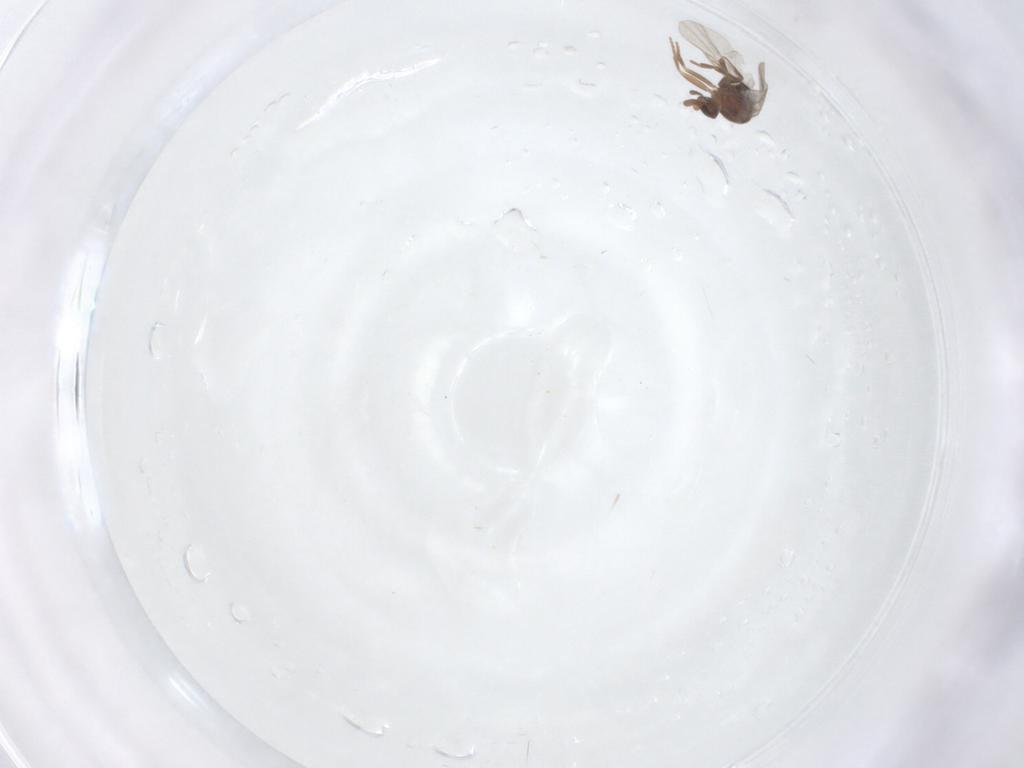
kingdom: Animalia
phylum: Arthropoda
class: Insecta
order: Diptera
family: Phoridae
